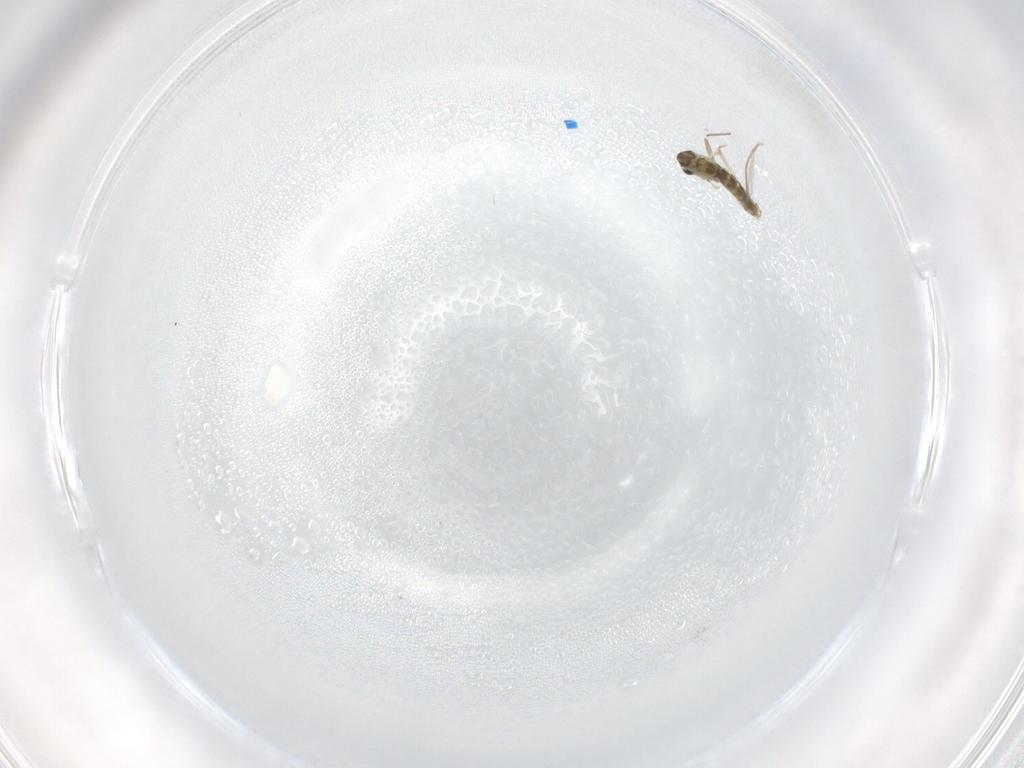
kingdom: Animalia
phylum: Arthropoda
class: Insecta
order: Diptera
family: Cecidomyiidae
